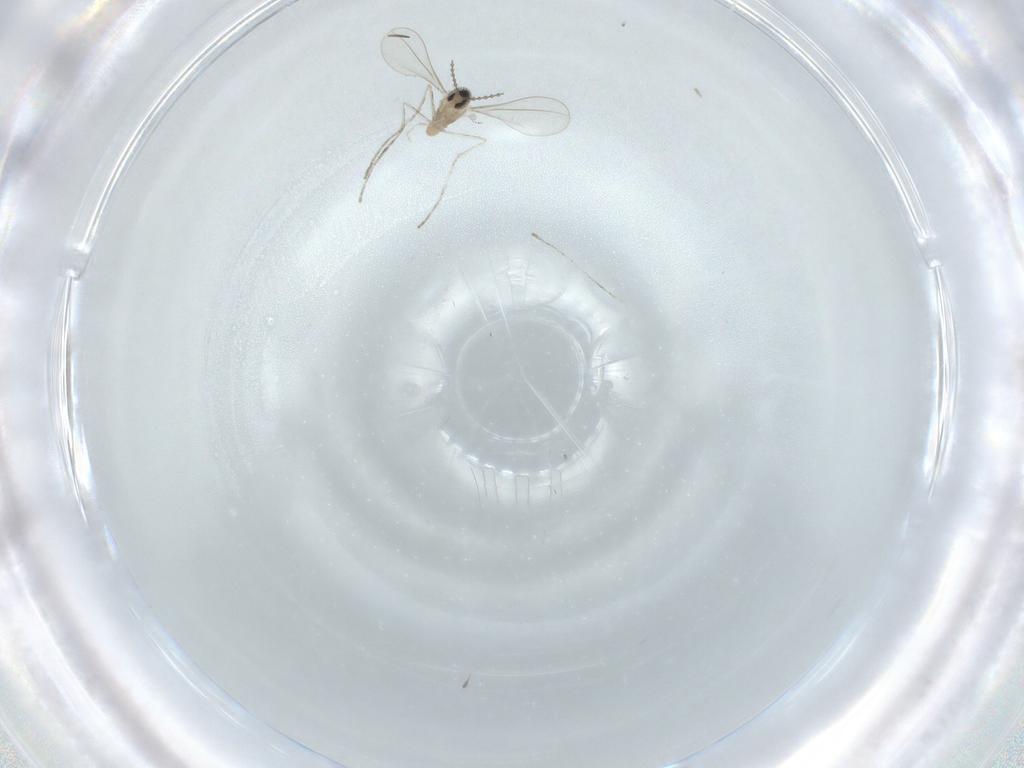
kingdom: Animalia
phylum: Arthropoda
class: Insecta
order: Diptera
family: Cecidomyiidae
